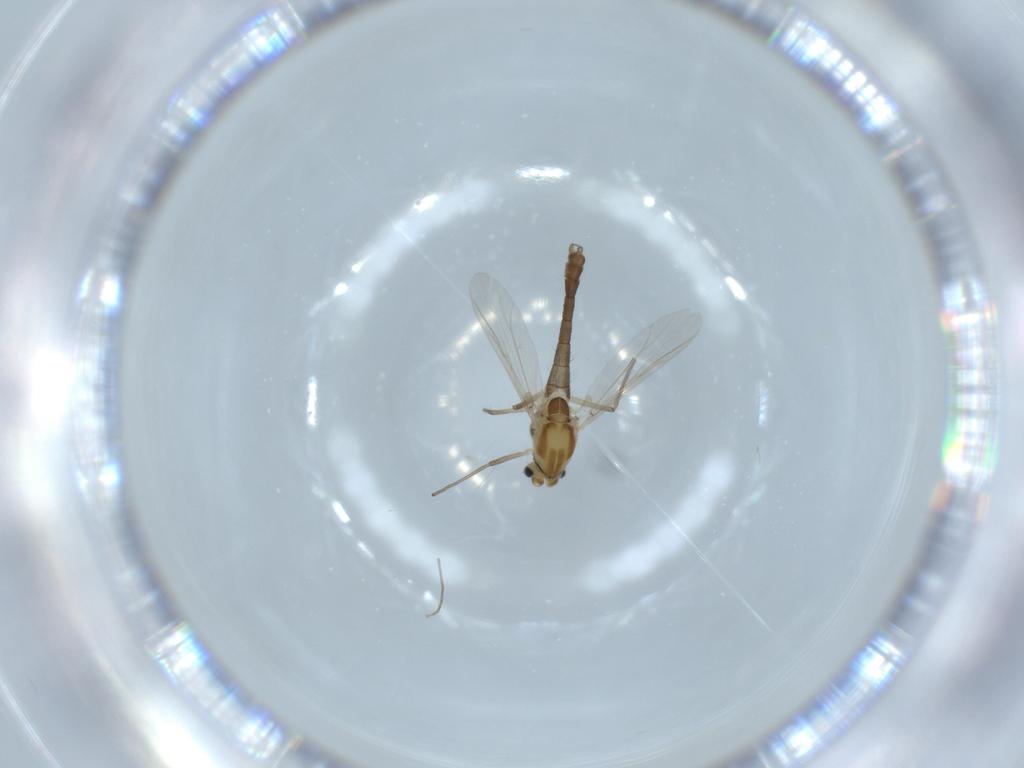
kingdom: Animalia
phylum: Arthropoda
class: Insecta
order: Diptera
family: Chironomidae
